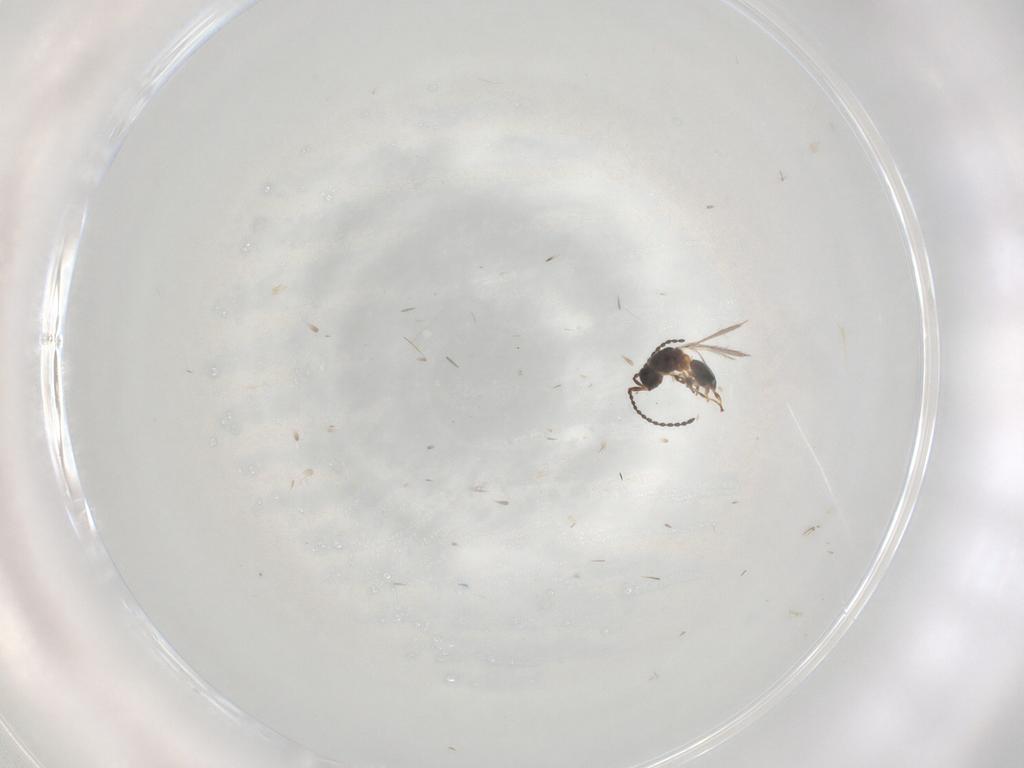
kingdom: Animalia
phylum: Arthropoda
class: Insecta
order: Hymenoptera
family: Diapriidae
